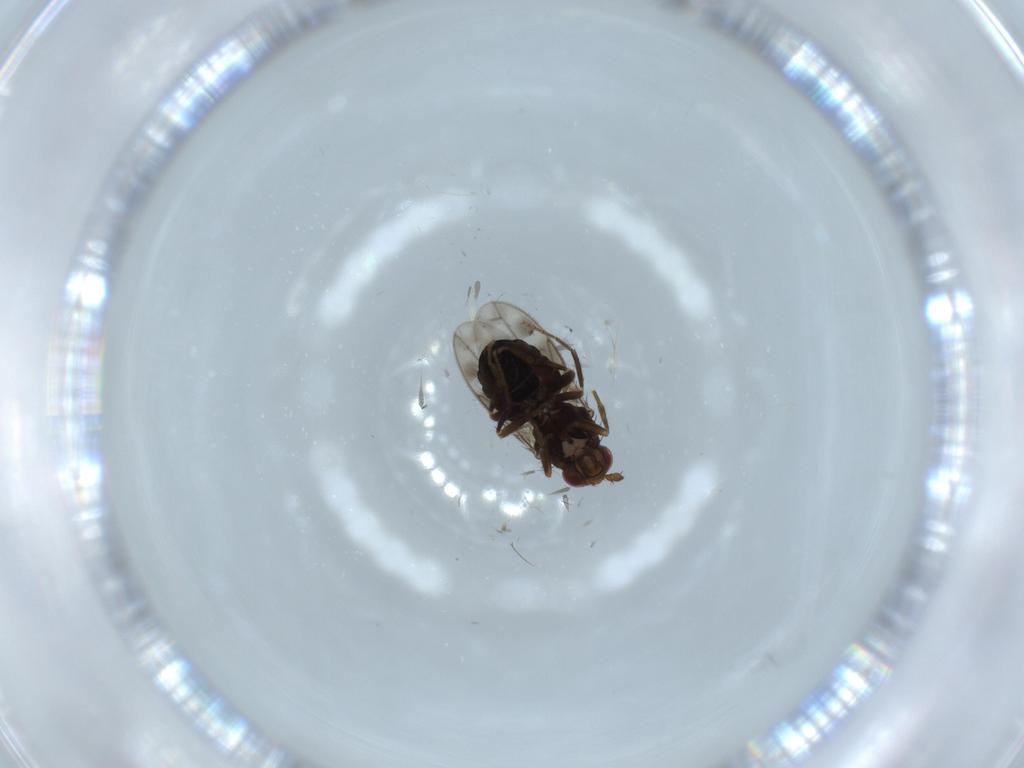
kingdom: Animalia
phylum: Arthropoda
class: Insecta
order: Diptera
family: Sphaeroceridae
